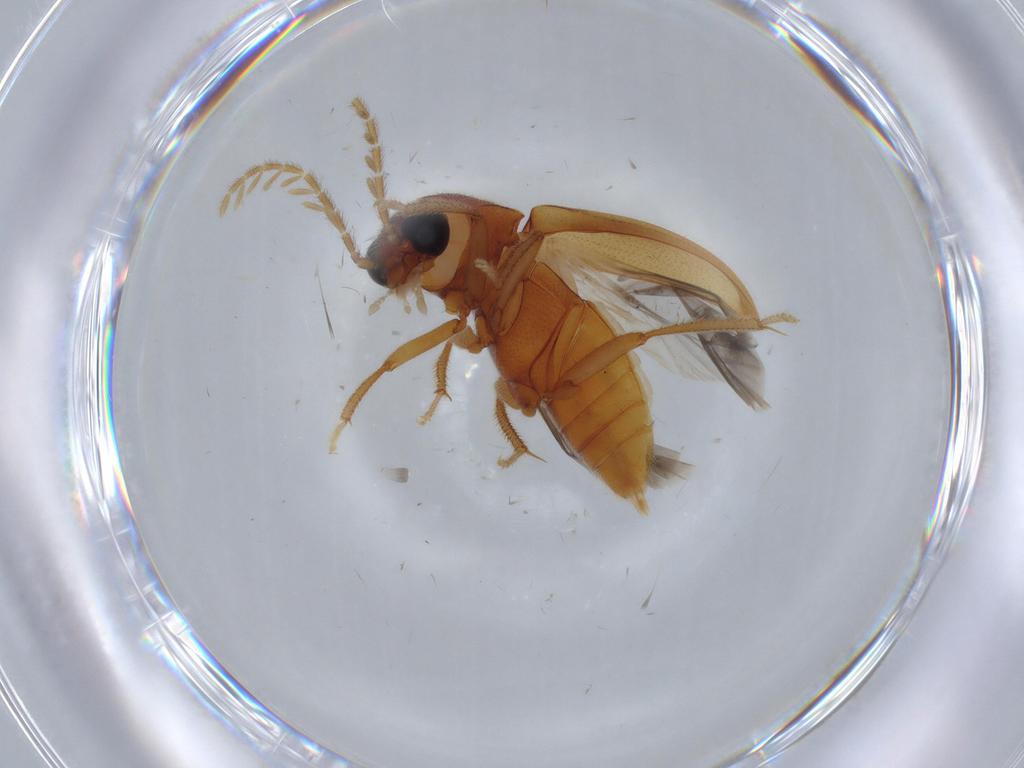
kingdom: Animalia
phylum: Arthropoda
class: Insecta
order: Coleoptera
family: Ptilodactylidae
